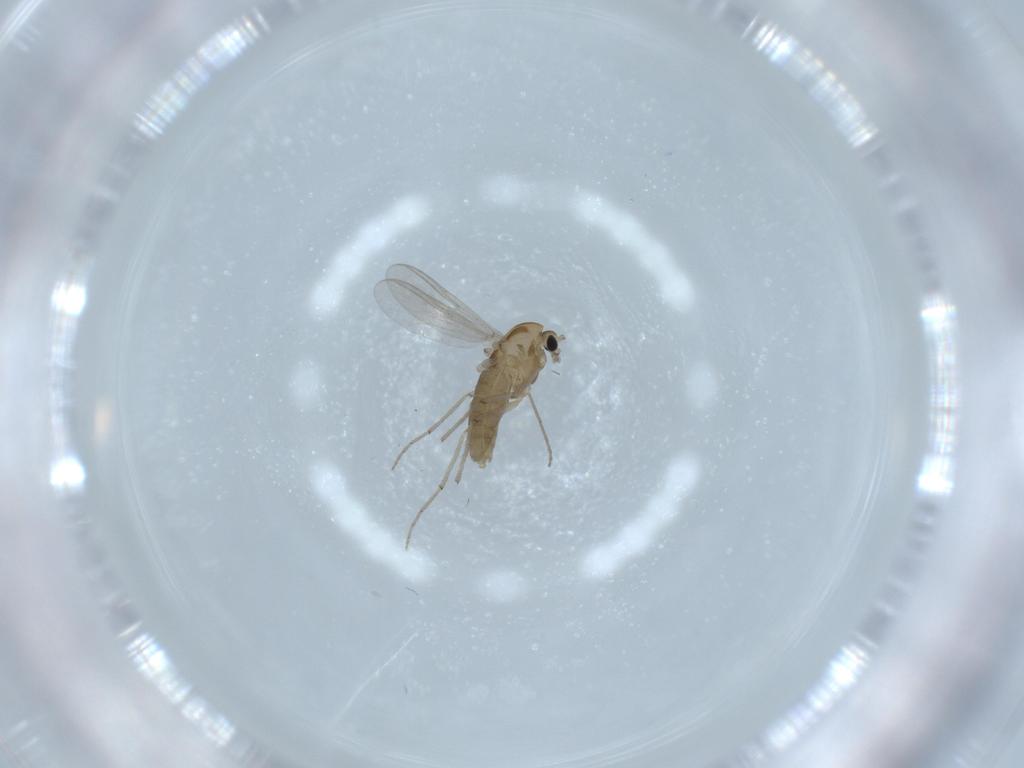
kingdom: Animalia
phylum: Arthropoda
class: Insecta
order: Diptera
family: Chironomidae
